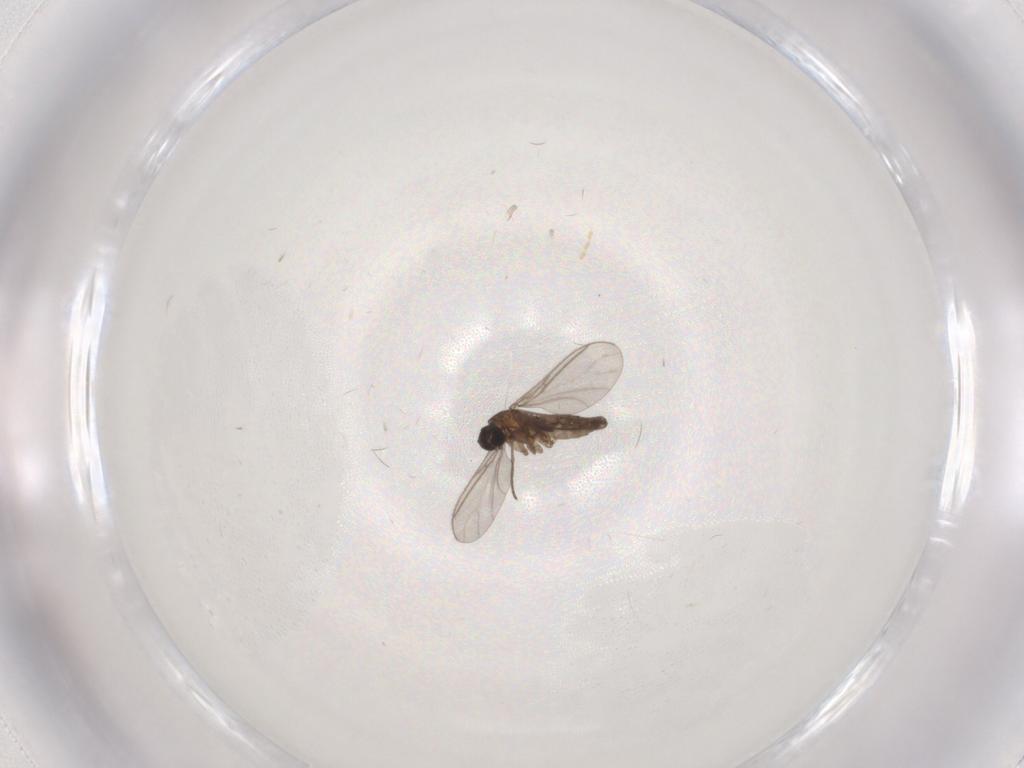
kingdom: Animalia
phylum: Arthropoda
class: Insecta
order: Diptera
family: Sciaridae
